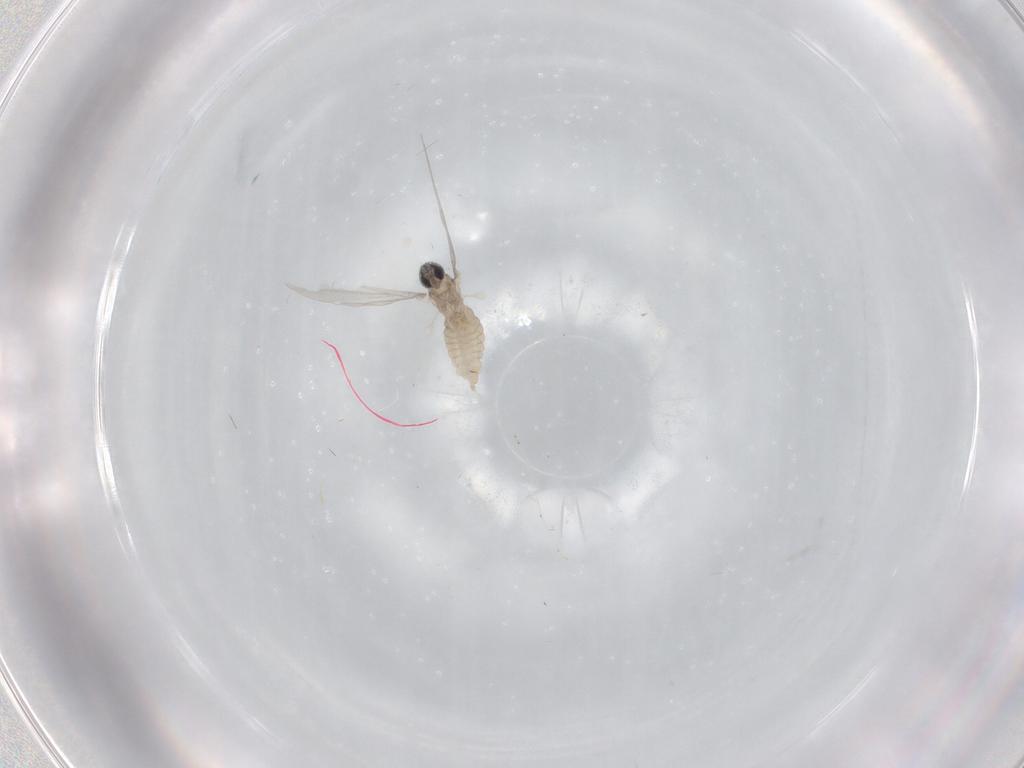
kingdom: Animalia
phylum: Arthropoda
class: Insecta
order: Diptera
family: Cecidomyiidae
